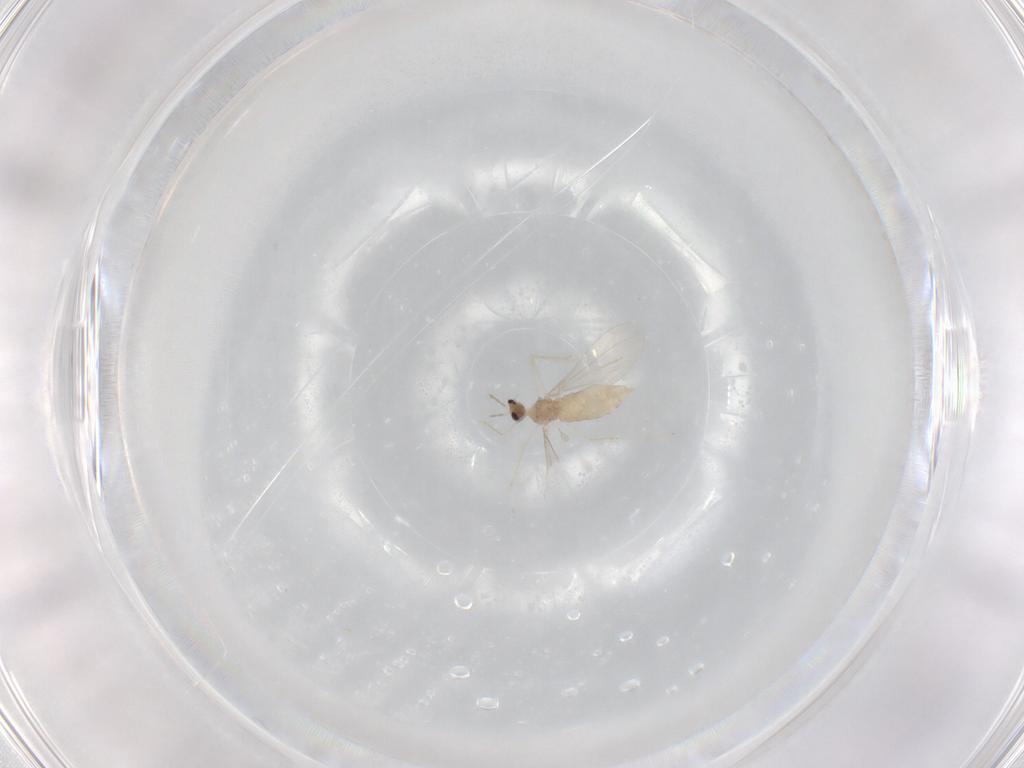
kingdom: Animalia
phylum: Arthropoda
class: Insecta
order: Diptera
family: Cecidomyiidae
